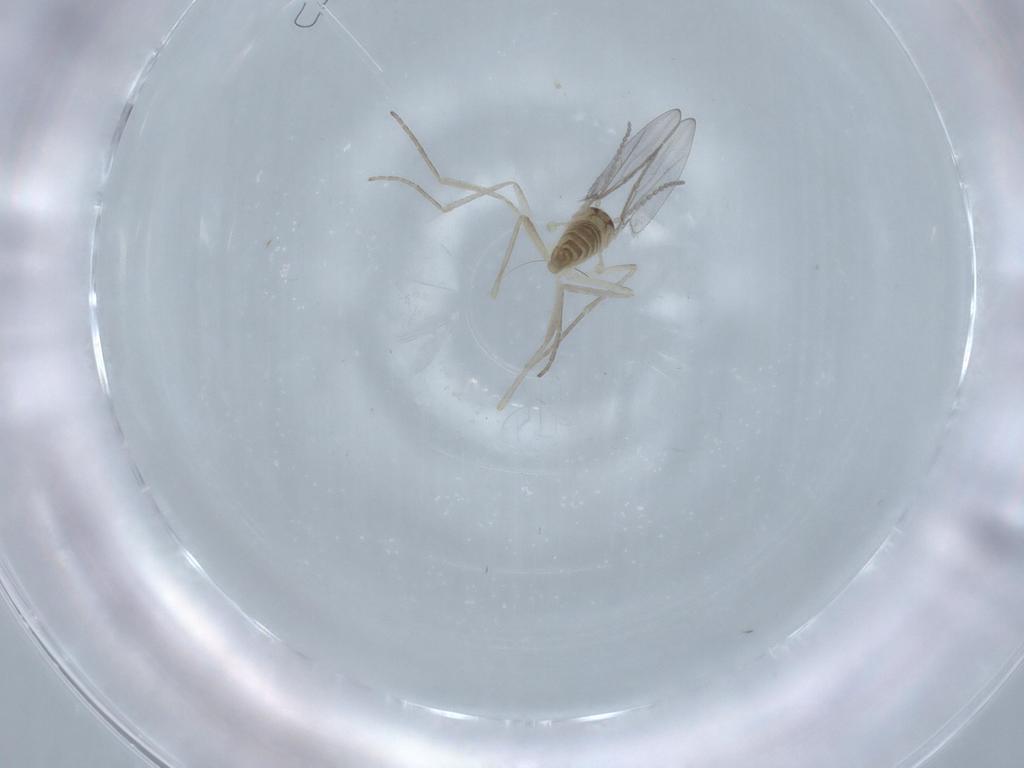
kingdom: Animalia
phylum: Arthropoda
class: Insecta
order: Diptera
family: Cecidomyiidae
